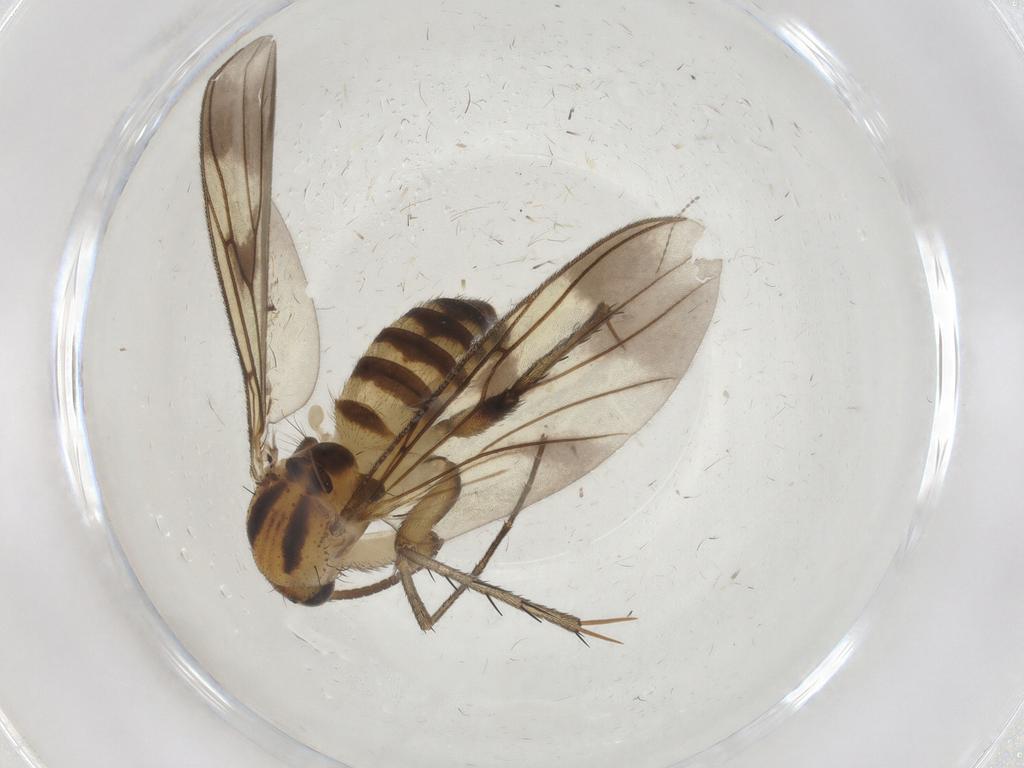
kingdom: Animalia
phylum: Arthropoda
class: Insecta
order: Diptera
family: Mycetophilidae
